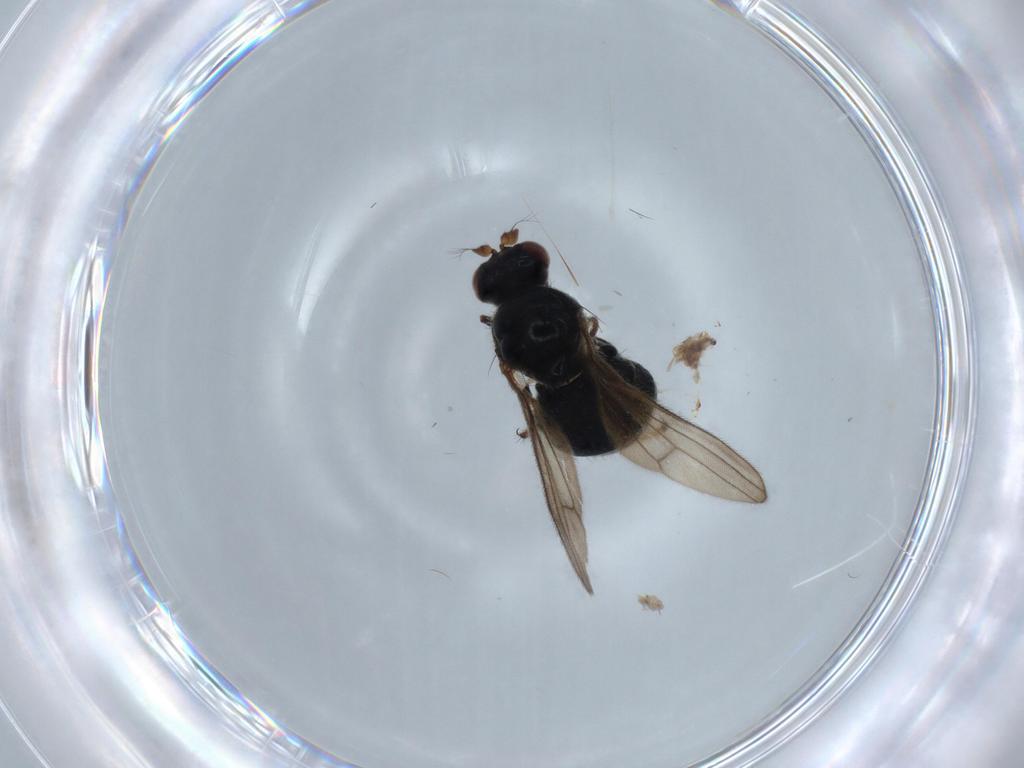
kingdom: Animalia
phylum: Arthropoda
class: Insecta
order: Diptera
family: Ephydridae
